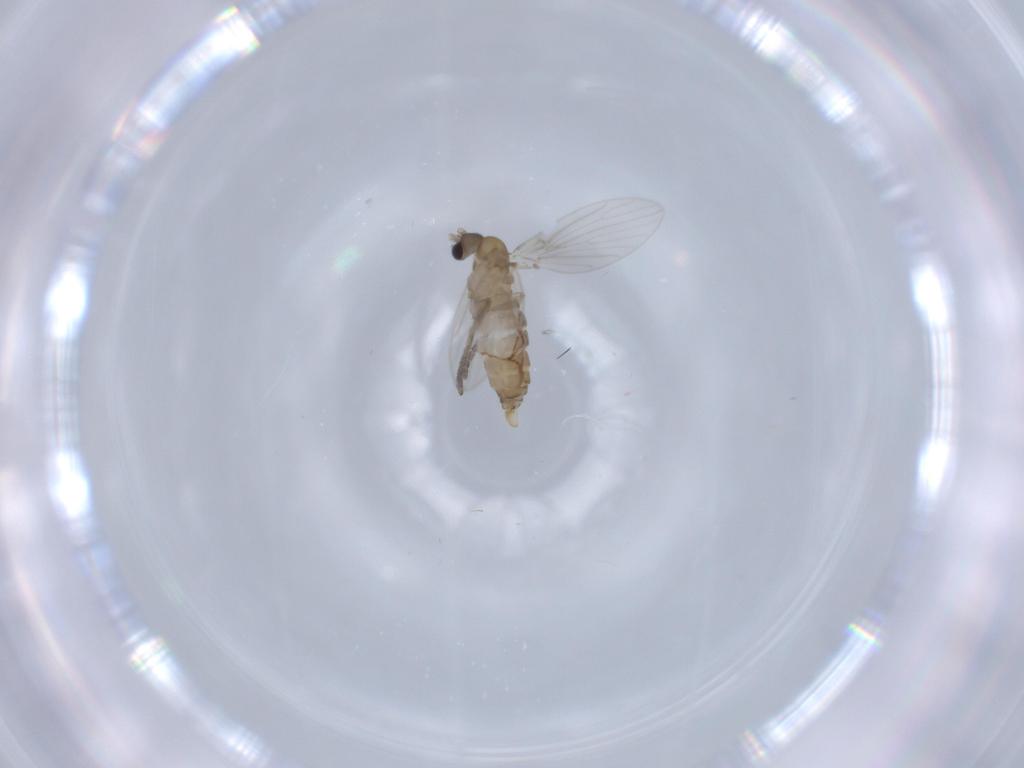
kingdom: Animalia
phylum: Arthropoda
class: Insecta
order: Diptera
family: Psychodidae
